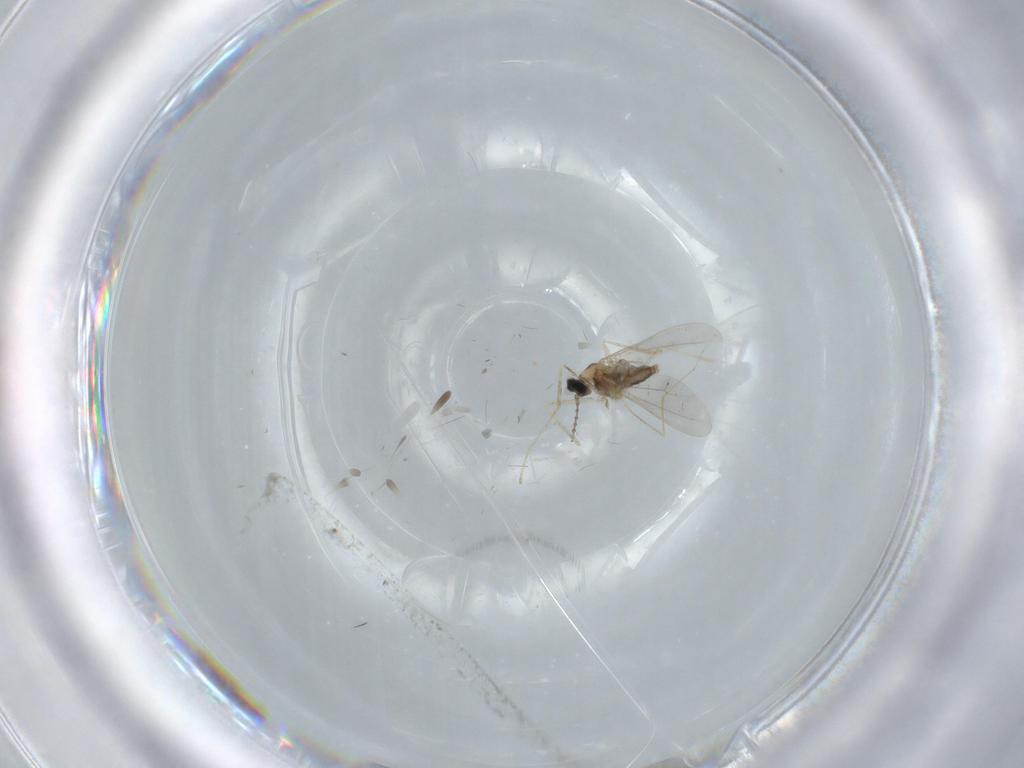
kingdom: Animalia
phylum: Arthropoda
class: Insecta
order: Diptera
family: Cecidomyiidae
